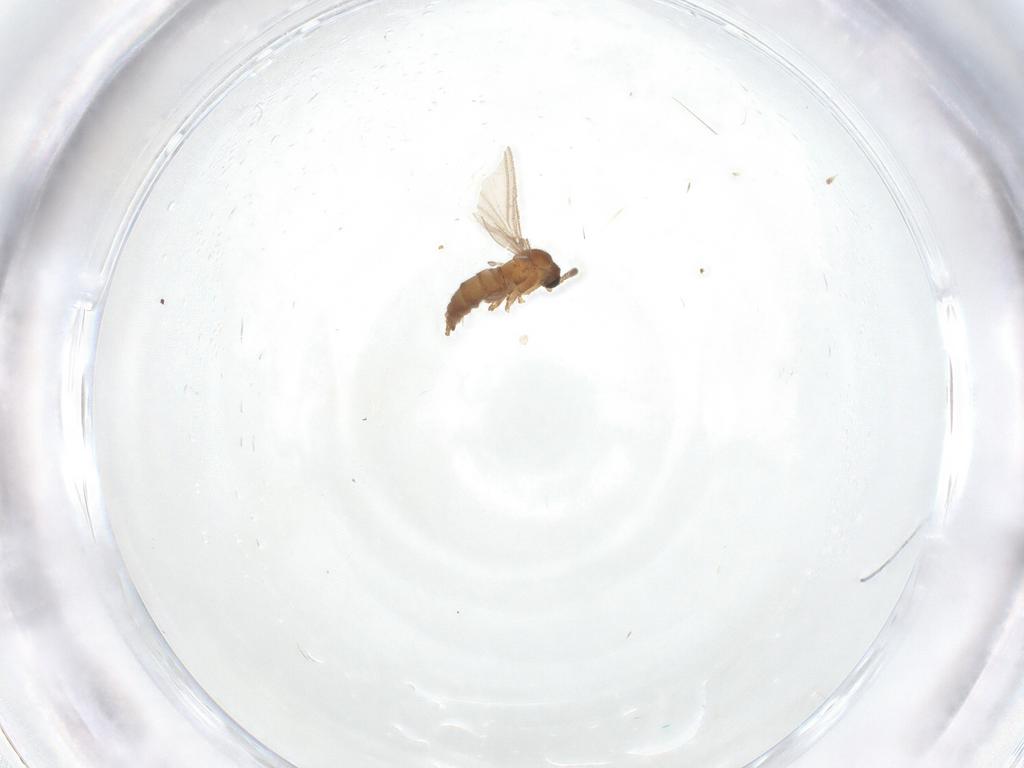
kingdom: Animalia
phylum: Arthropoda
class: Insecta
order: Diptera
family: Sciaridae
